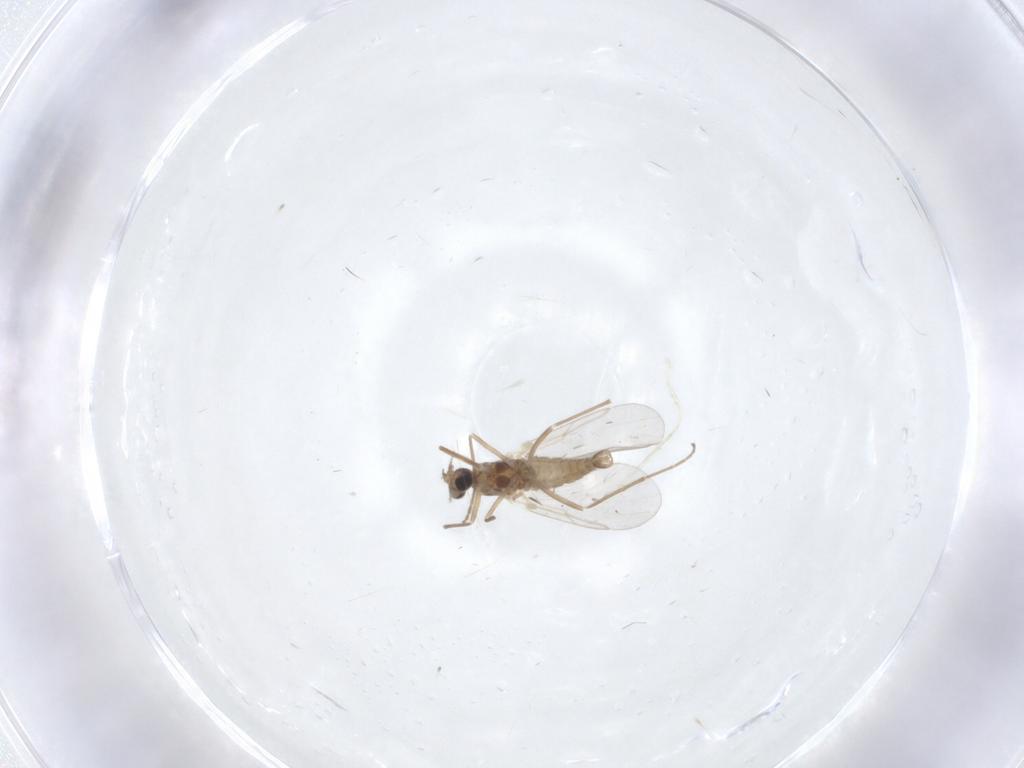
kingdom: Animalia
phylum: Arthropoda
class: Insecta
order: Diptera
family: Cecidomyiidae
